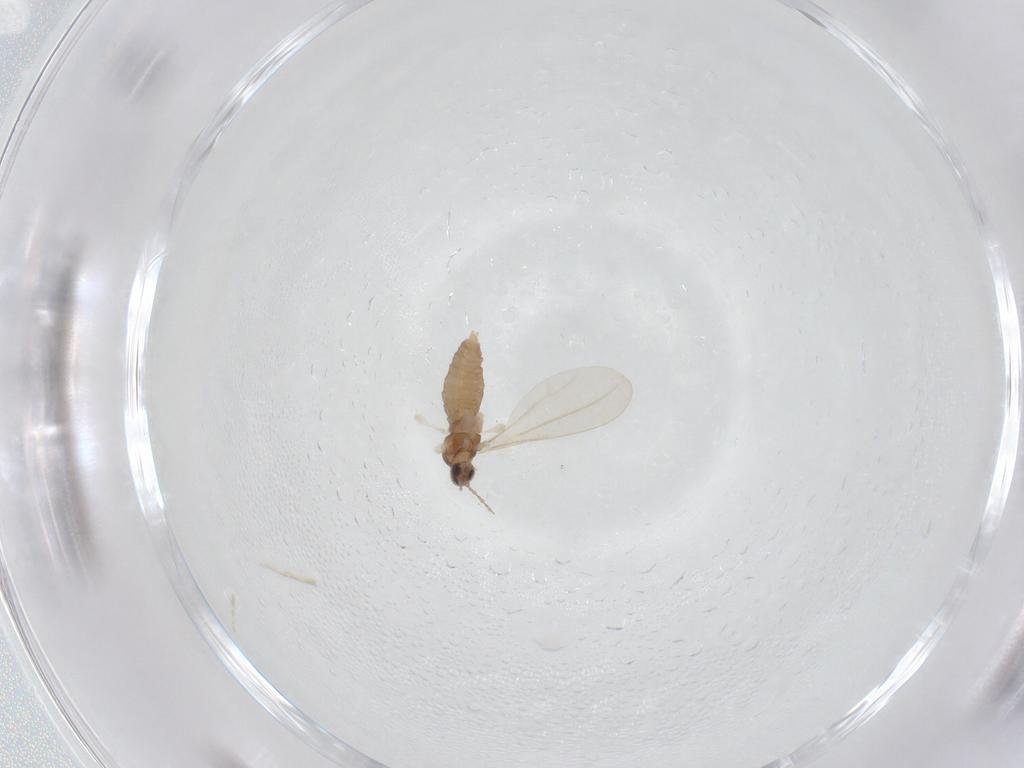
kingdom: Animalia
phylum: Arthropoda
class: Insecta
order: Diptera
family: Cecidomyiidae
